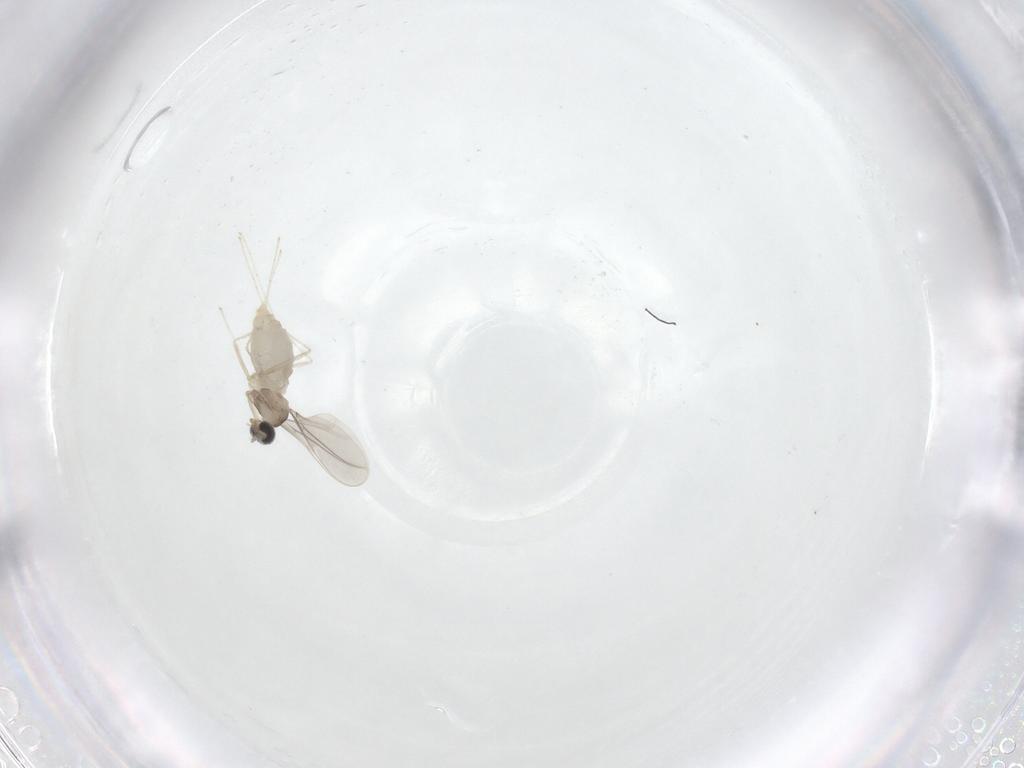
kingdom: Animalia
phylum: Arthropoda
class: Insecta
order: Diptera
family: Cecidomyiidae
